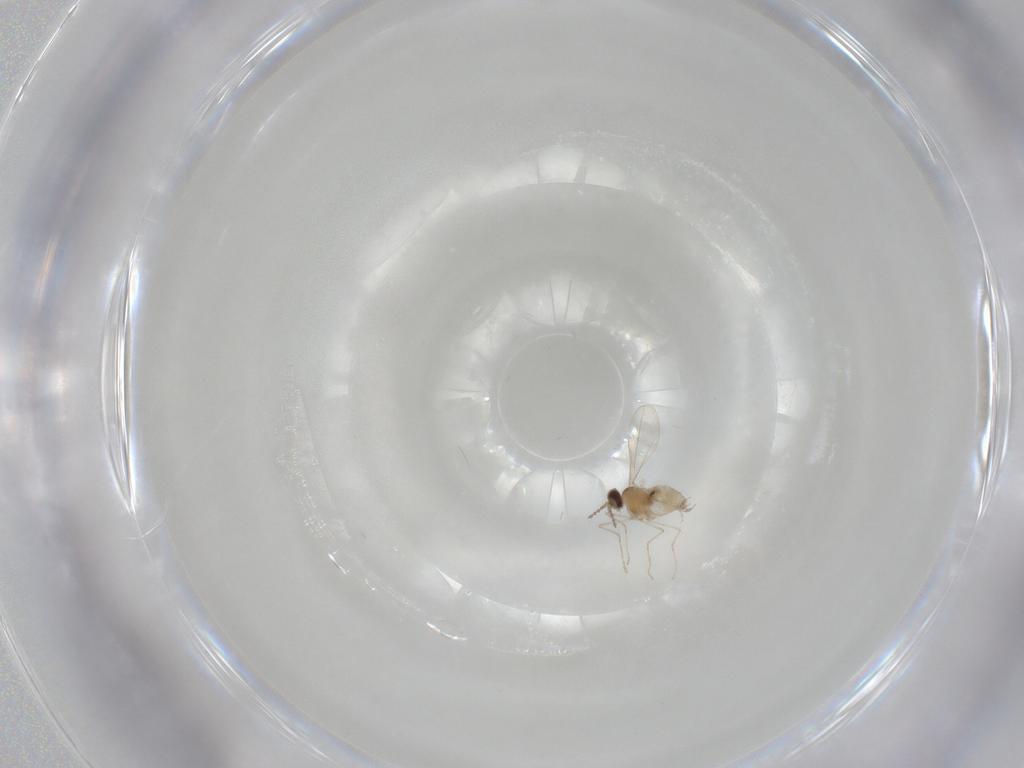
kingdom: Animalia
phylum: Arthropoda
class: Insecta
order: Diptera
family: Cecidomyiidae
